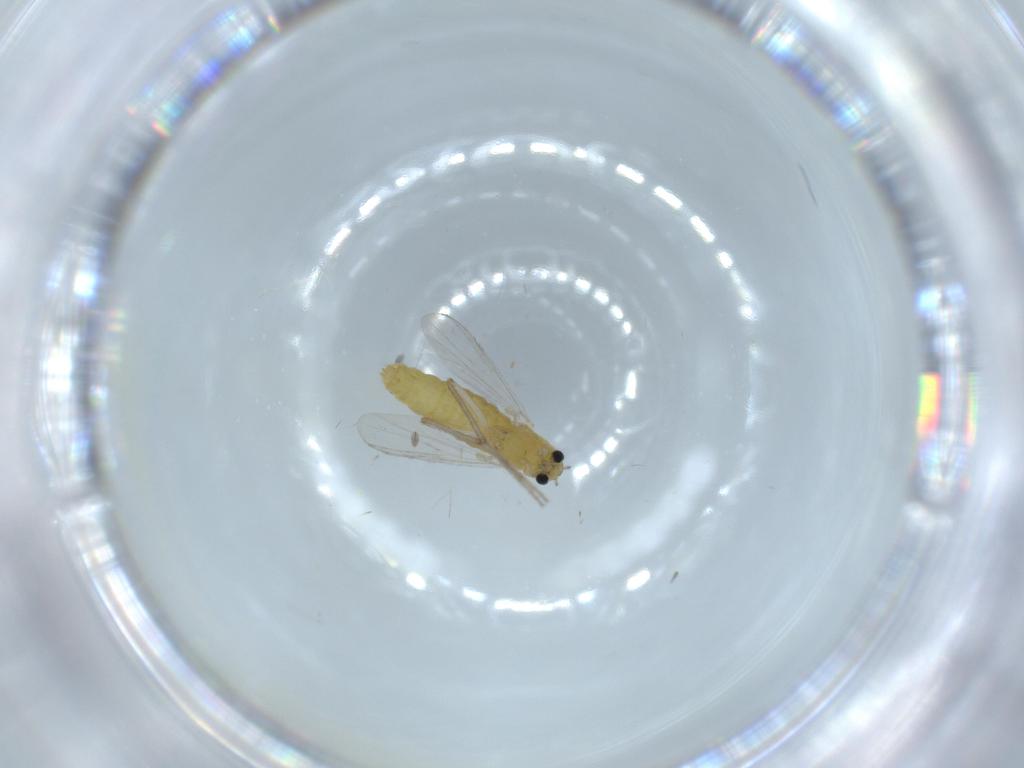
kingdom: Animalia
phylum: Arthropoda
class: Insecta
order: Diptera
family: Chironomidae
